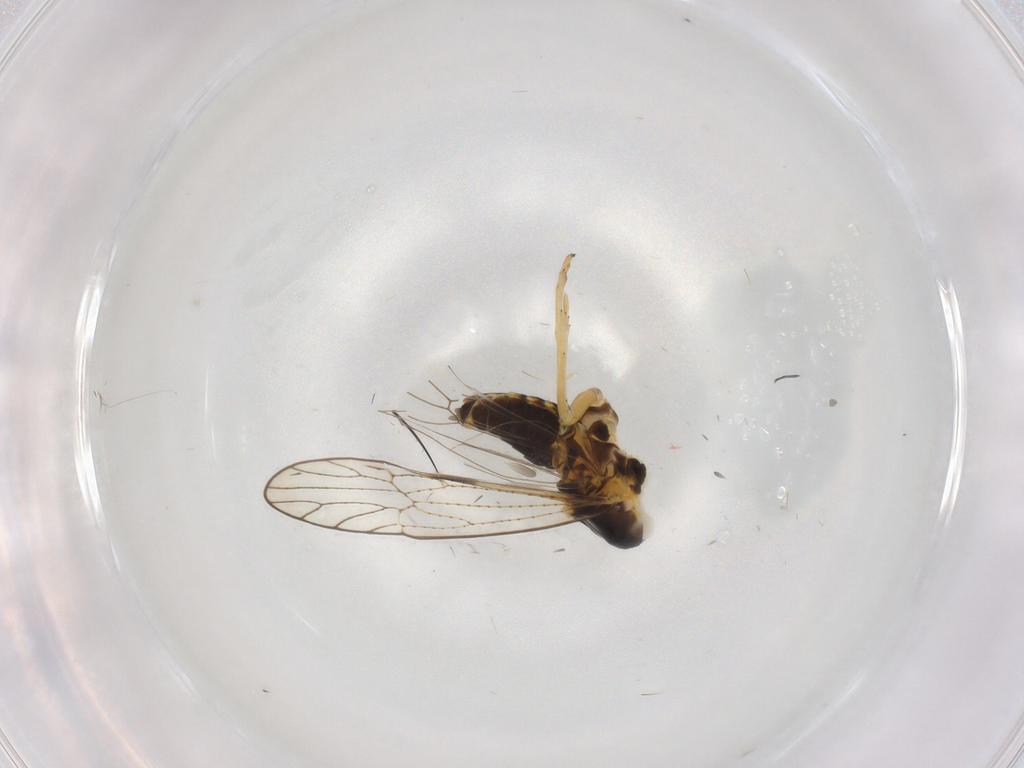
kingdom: Animalia
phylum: Arthropoda
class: Insecta
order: Hemiptera
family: Cicadellidae
